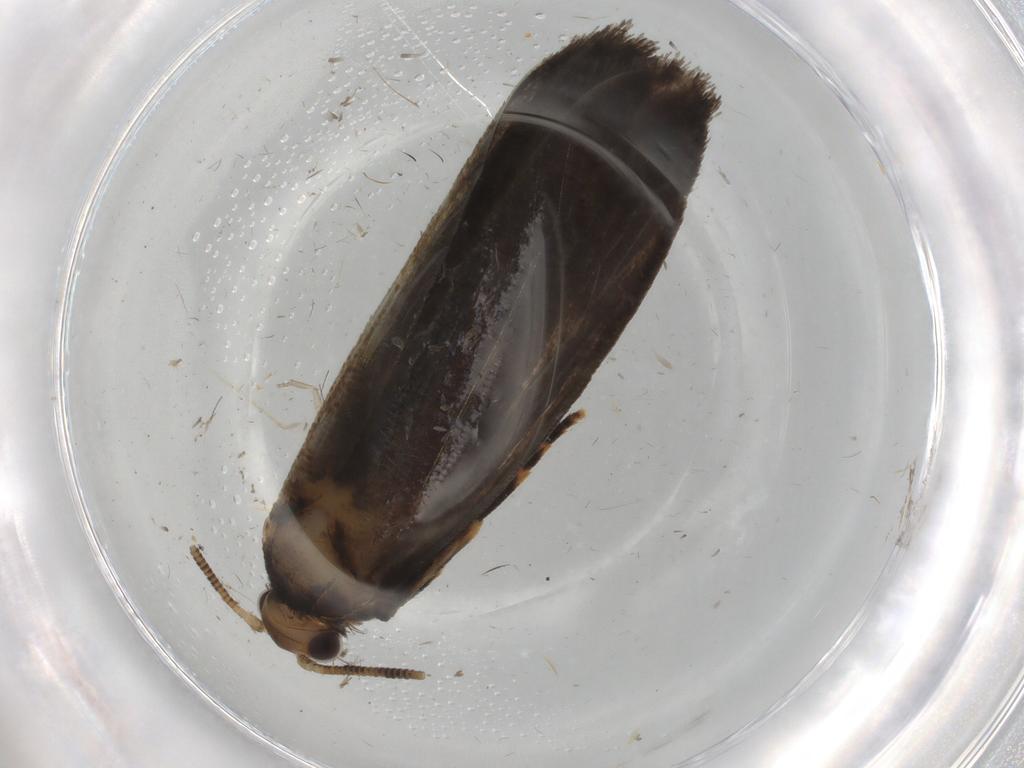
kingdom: Animalia
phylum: Arthropoda
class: Insecta
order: Lepidoptera
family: Tineidae
